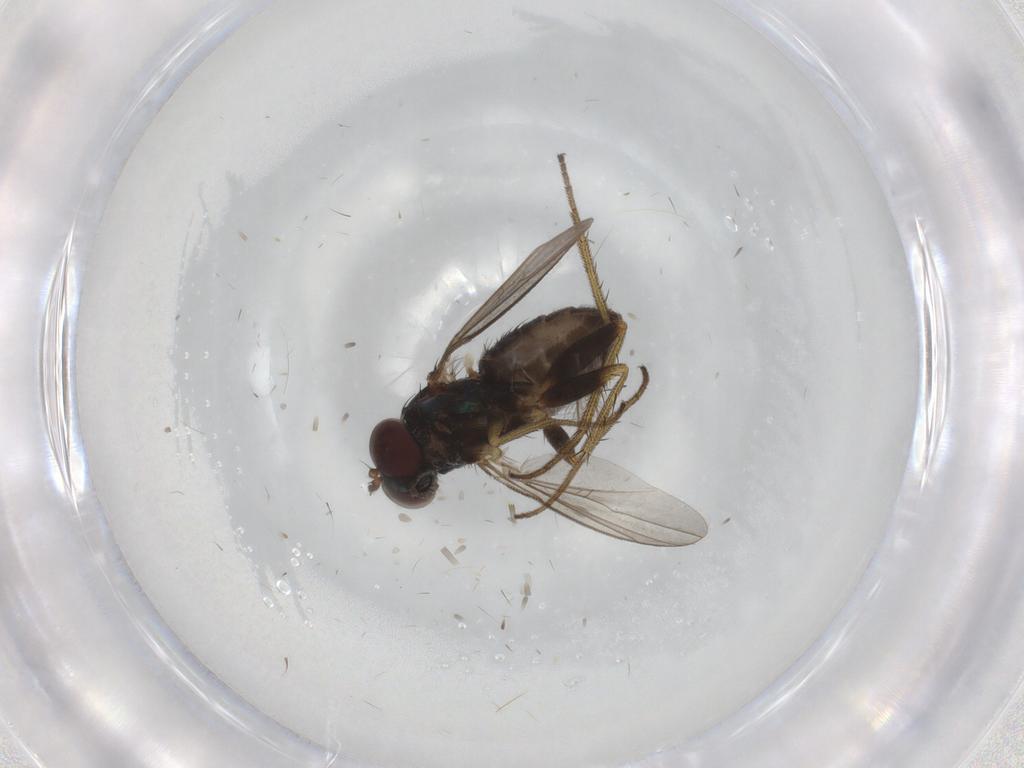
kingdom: Animalia
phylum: Arthropoda
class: Insecta
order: Diptera
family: Dolichopodidae
